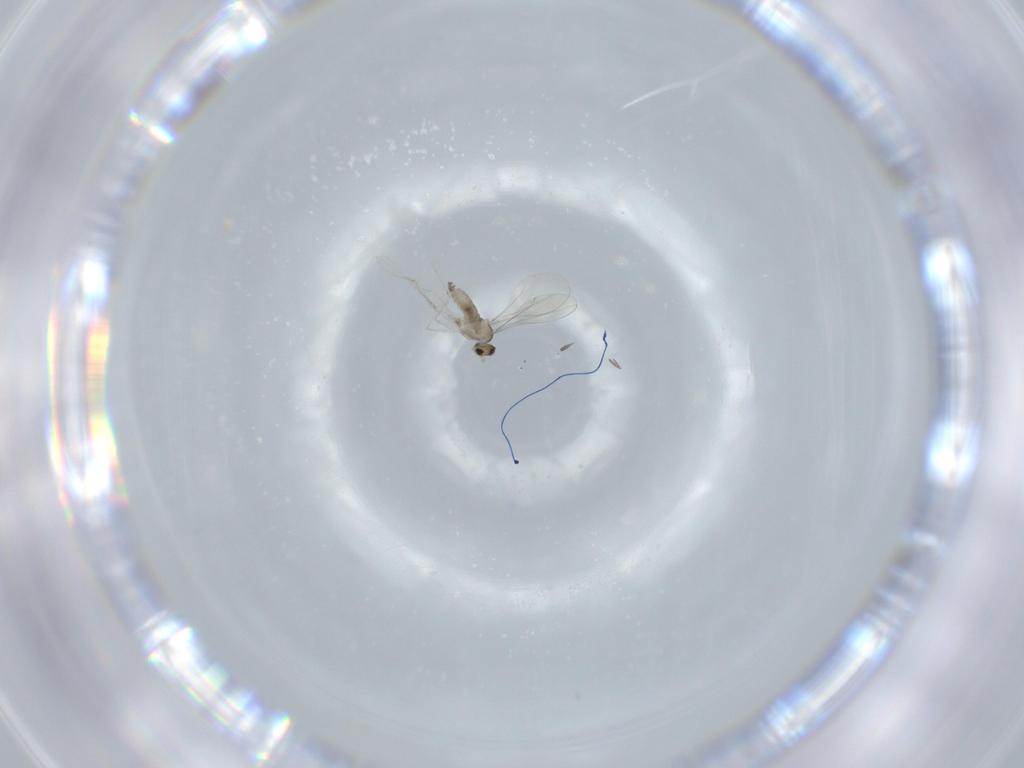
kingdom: Animalia
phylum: Arthropoda
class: Insecta
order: Diptera
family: Cecidomyiidae
